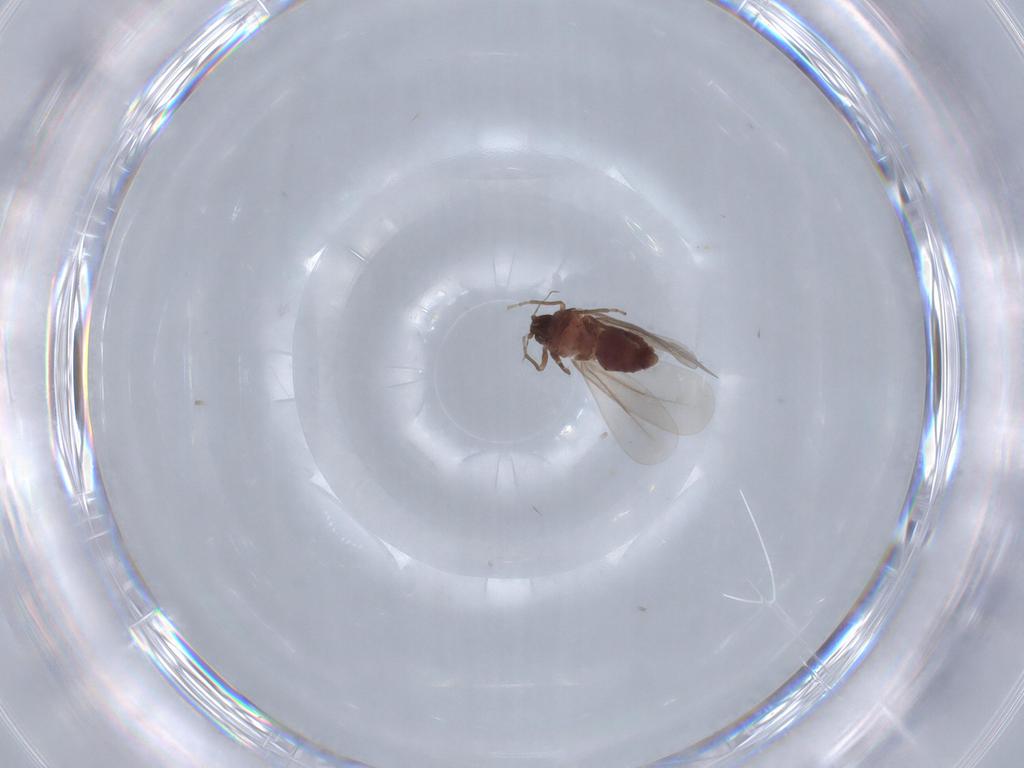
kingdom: Animalia
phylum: Arthropoda
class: Insecta
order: Hemiptera
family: Aleyrodidae
